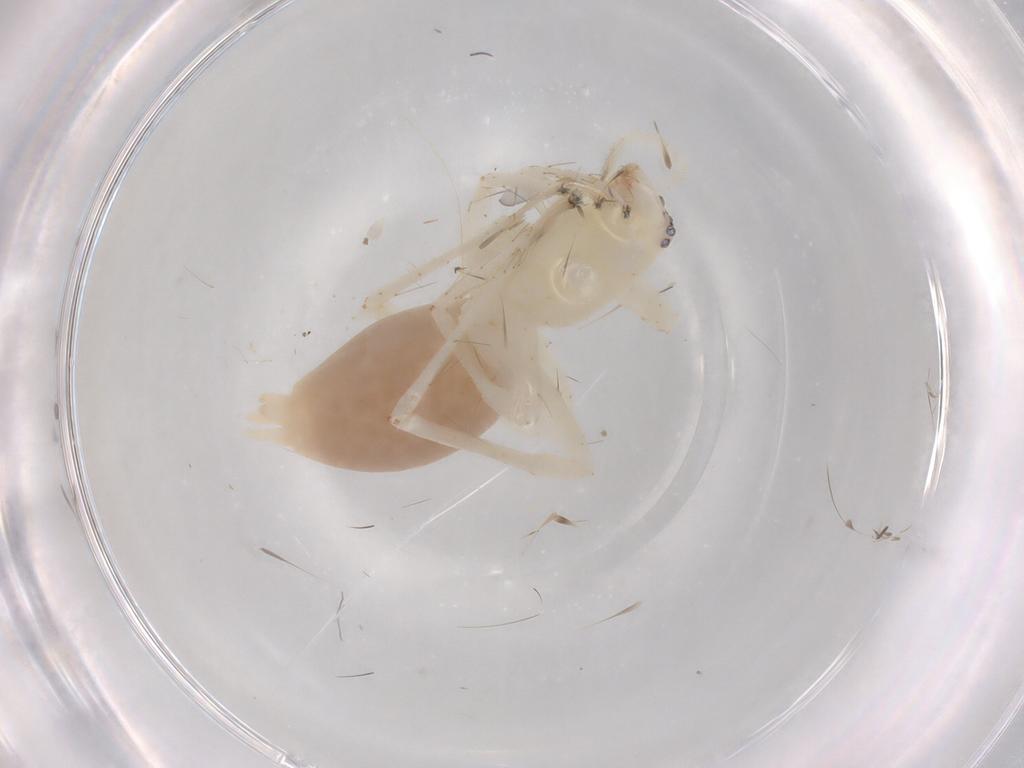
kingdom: Animalia
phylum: Arthropoda
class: Arachnida
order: Araneae
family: Anyphaenidae
